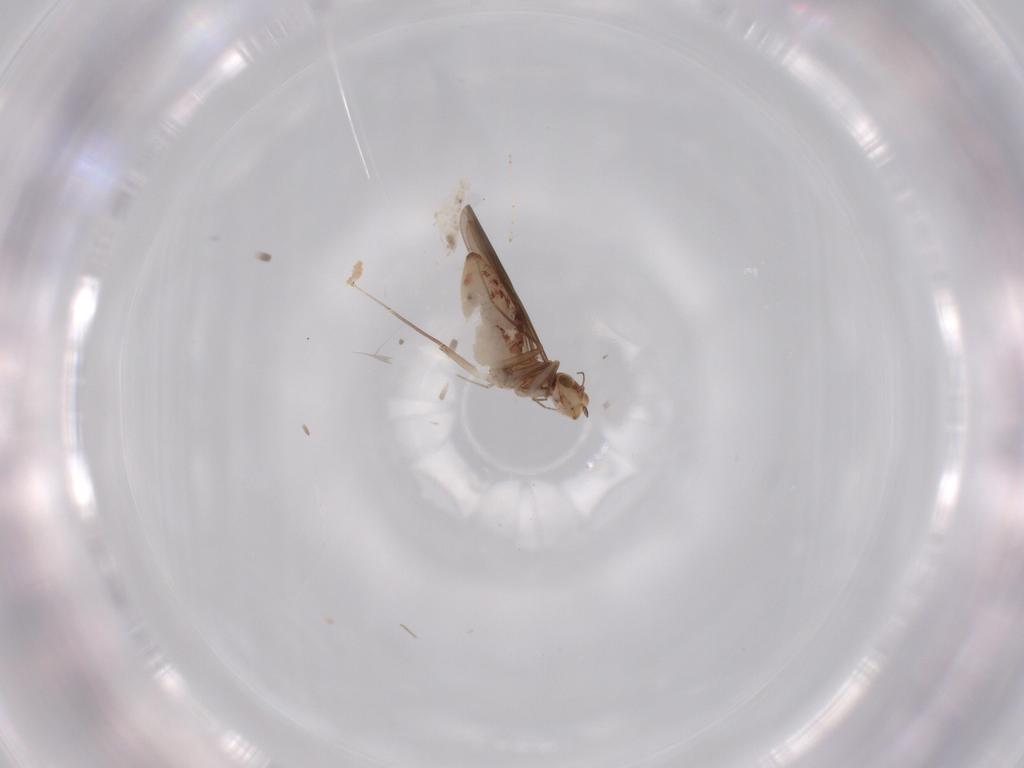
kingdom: Animalia
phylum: Arthropoda
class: Insecta
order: Psocodea
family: Lepidopsocidae
